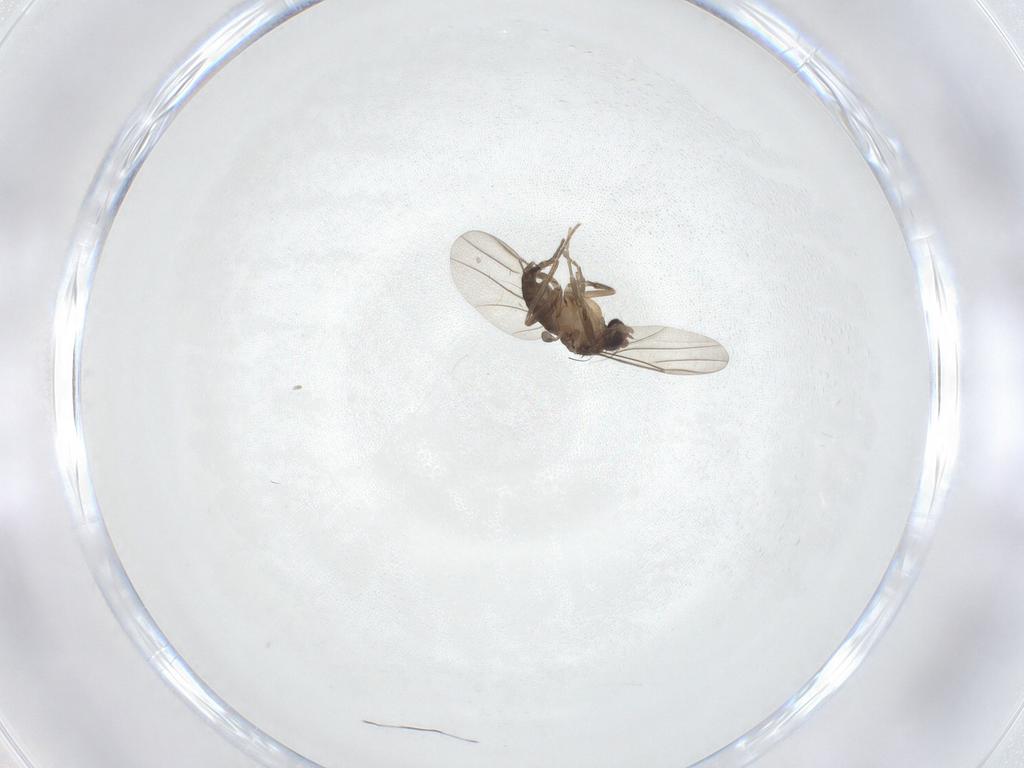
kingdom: Animalia
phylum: Arthropoda
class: Insecta
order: Diptera
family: Phoridae
